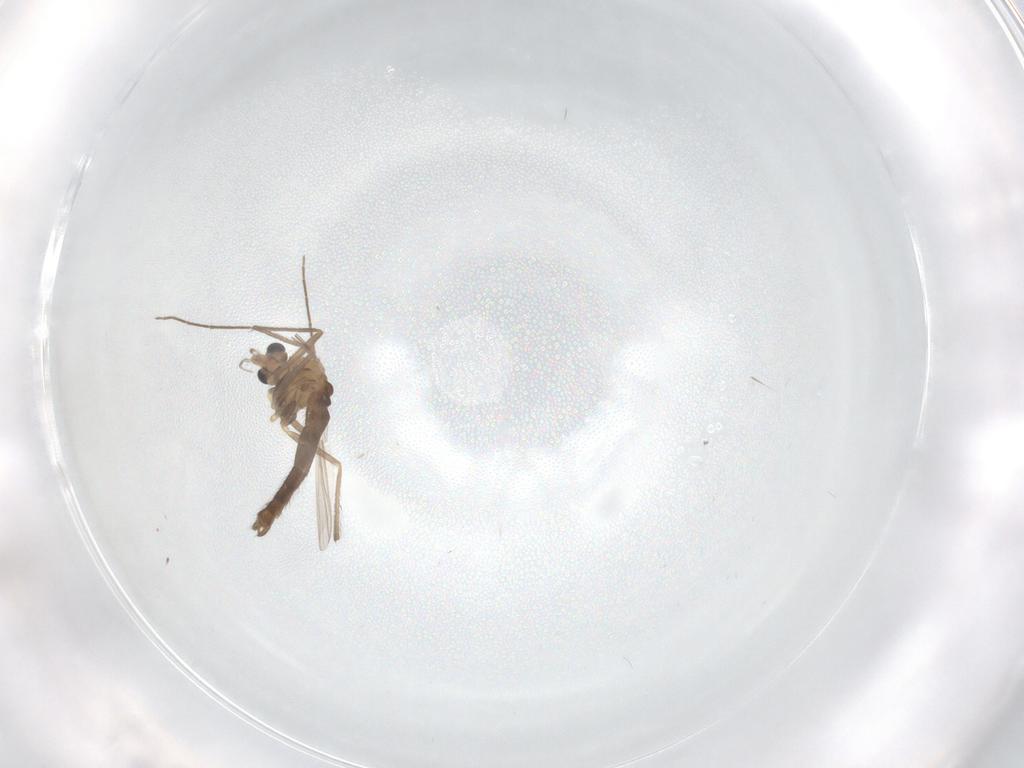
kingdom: Animalia
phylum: Arthropoda
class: Insecta
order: Diptera
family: Chironomidae
